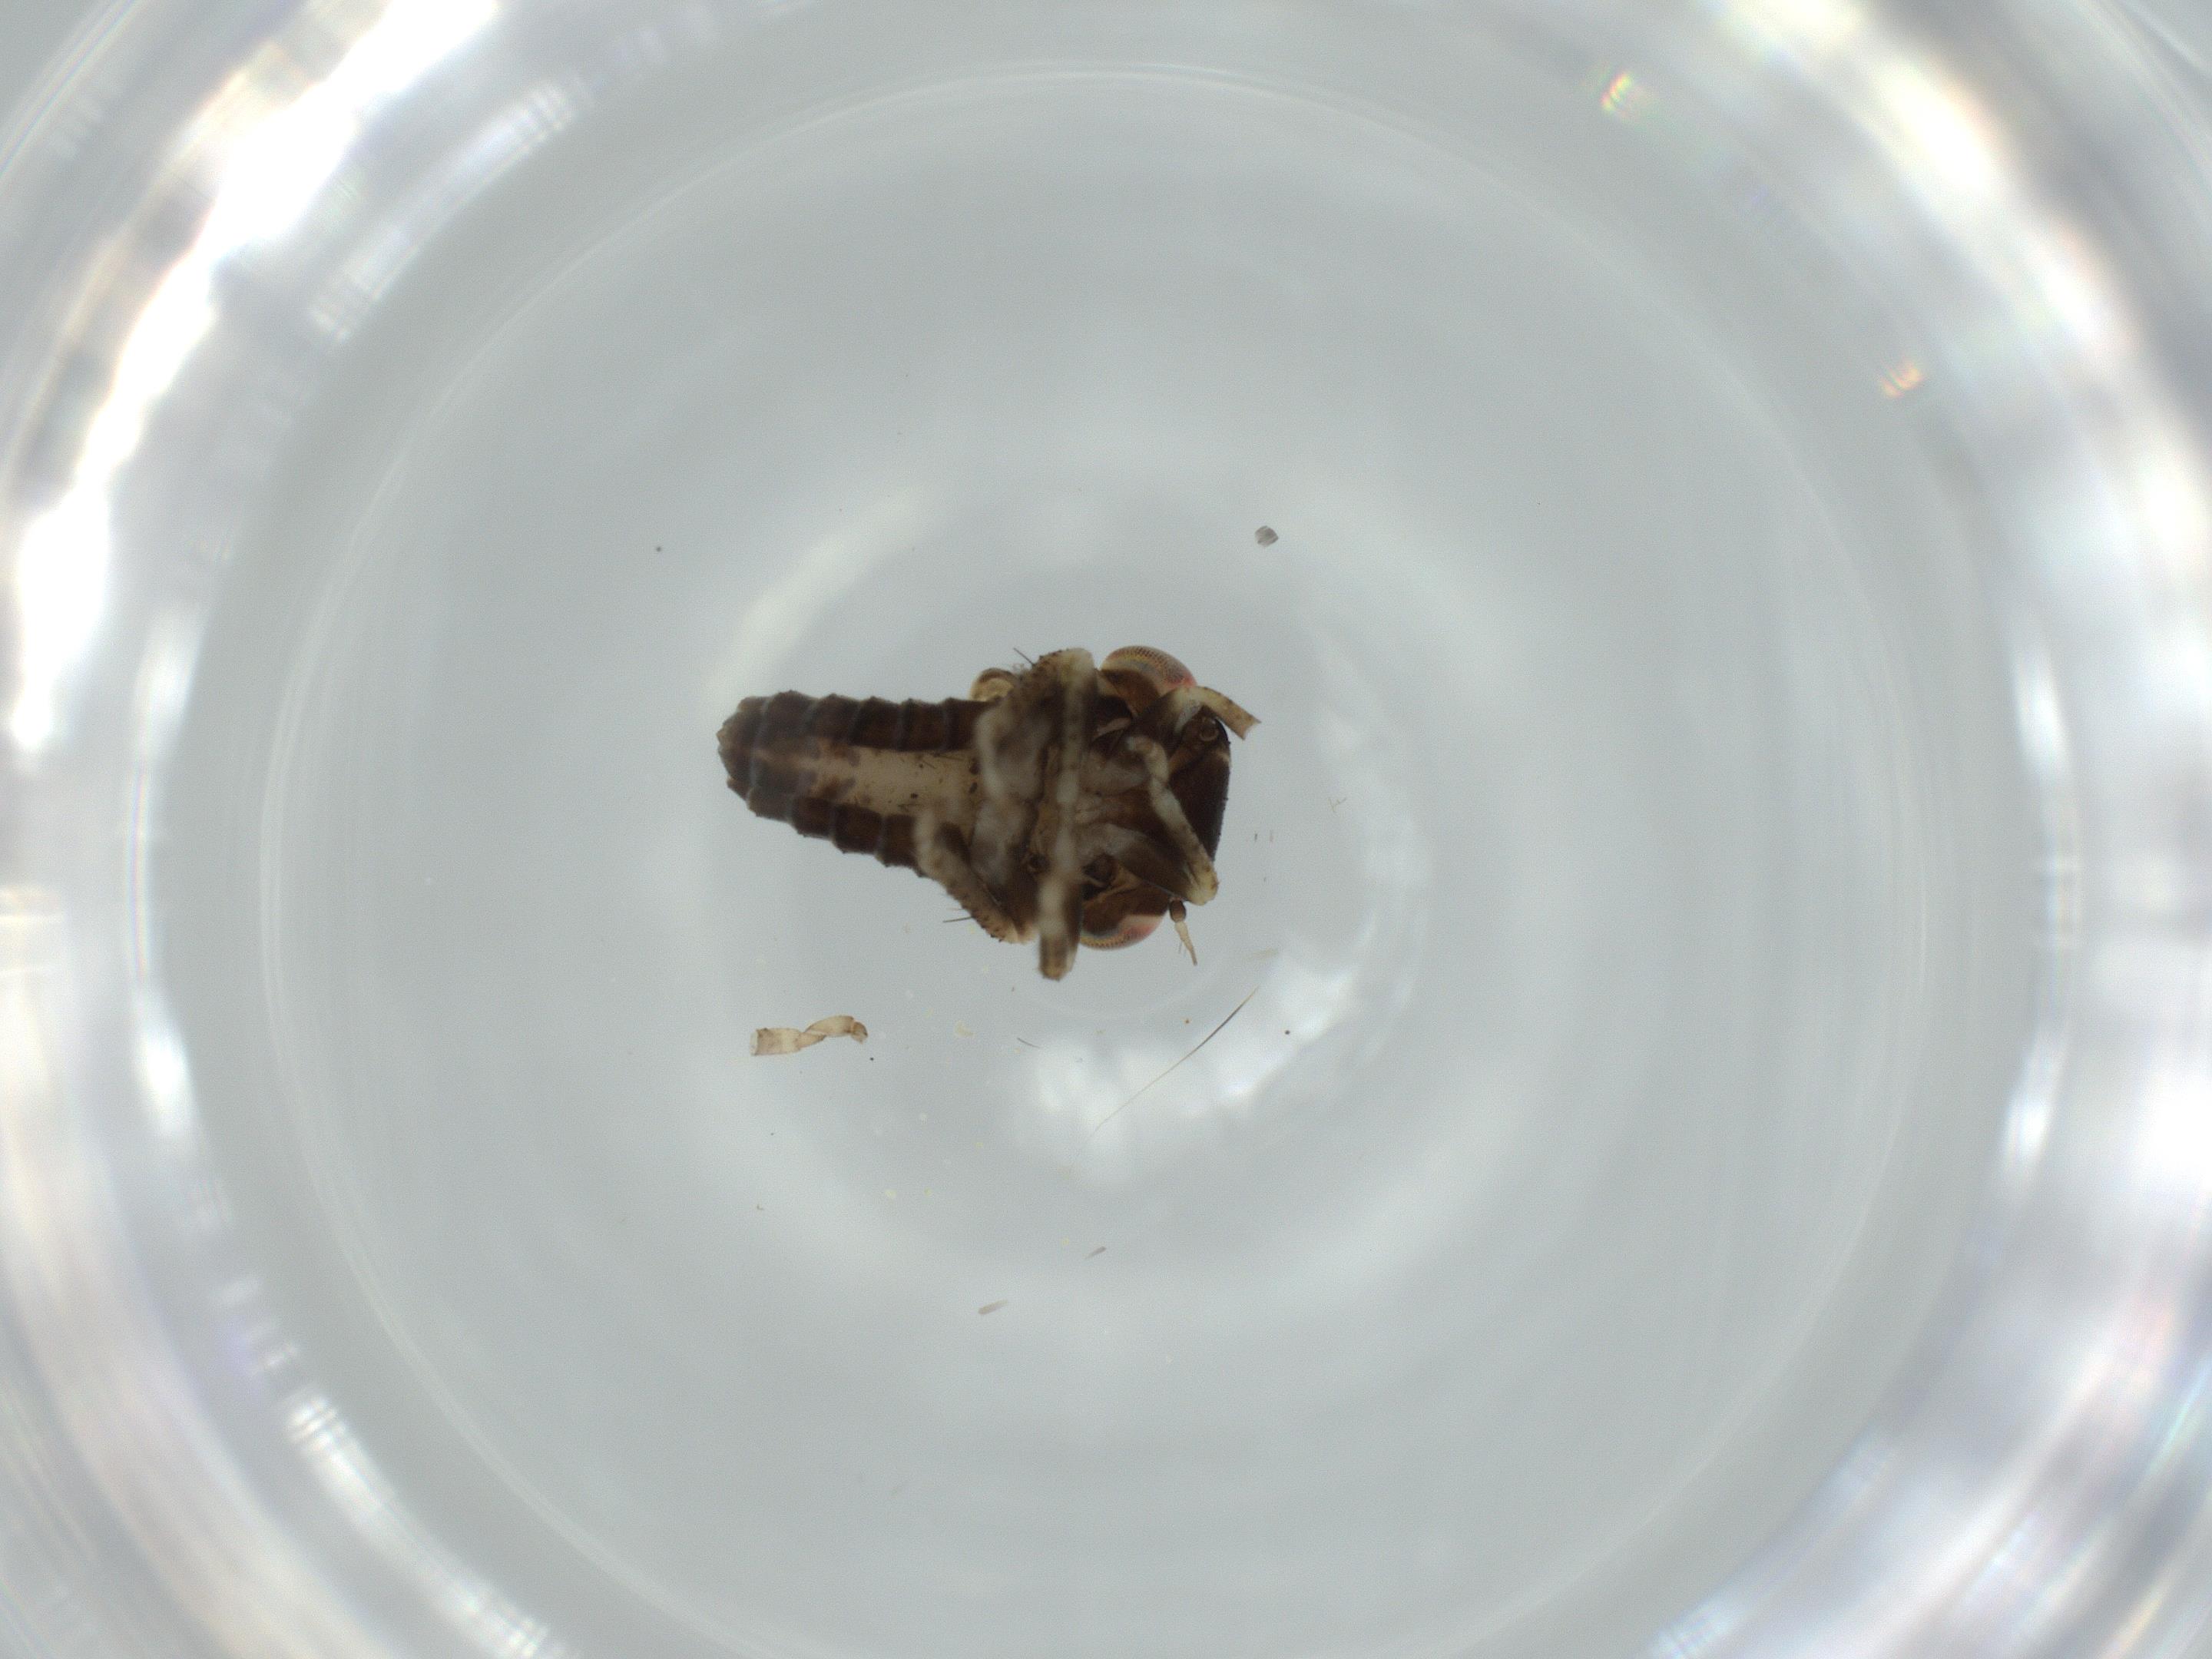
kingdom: Animalia
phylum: Arthropoda
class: Insecta
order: Hemiptera
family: Cicadellidae
